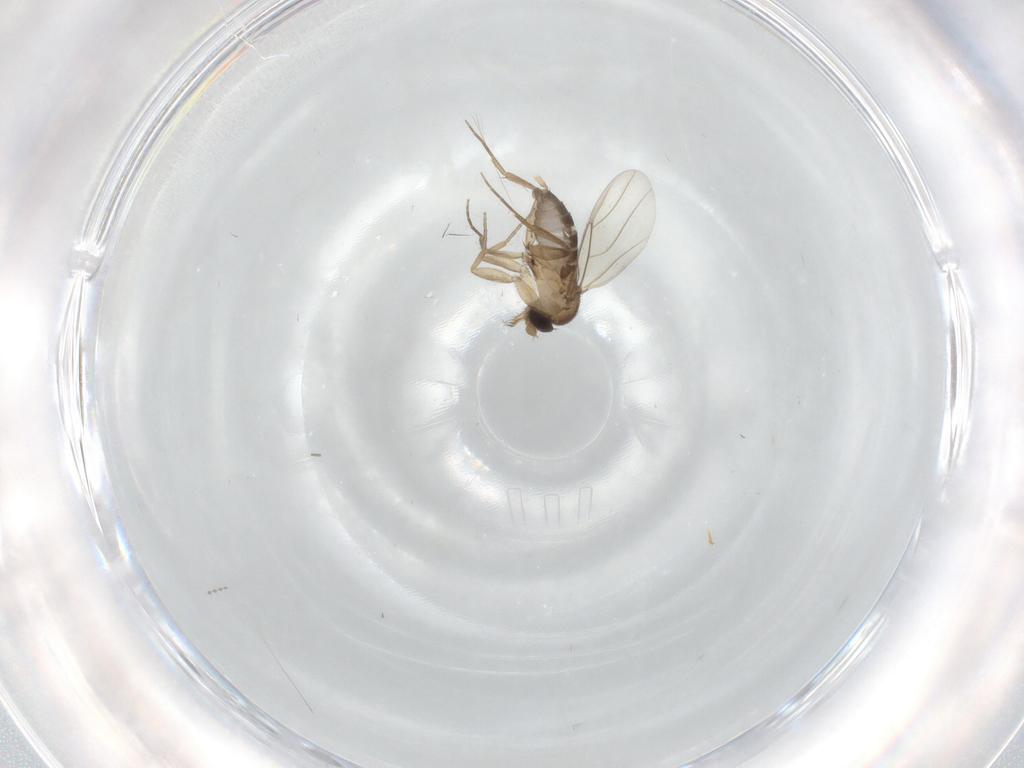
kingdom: Animalia
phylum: Arthropoda
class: Insecta
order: Diptera
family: Cecidomyiidae
